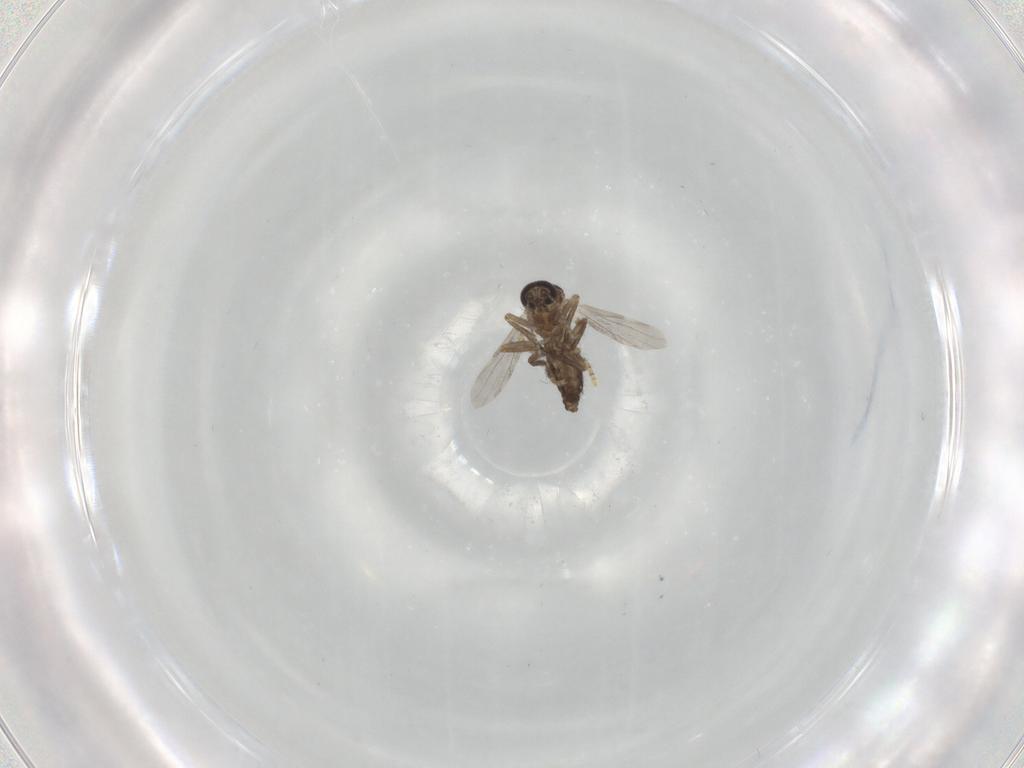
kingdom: Animalia
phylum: Arthropoda
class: Insecta
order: Diptera
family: Ceratopogonidae
